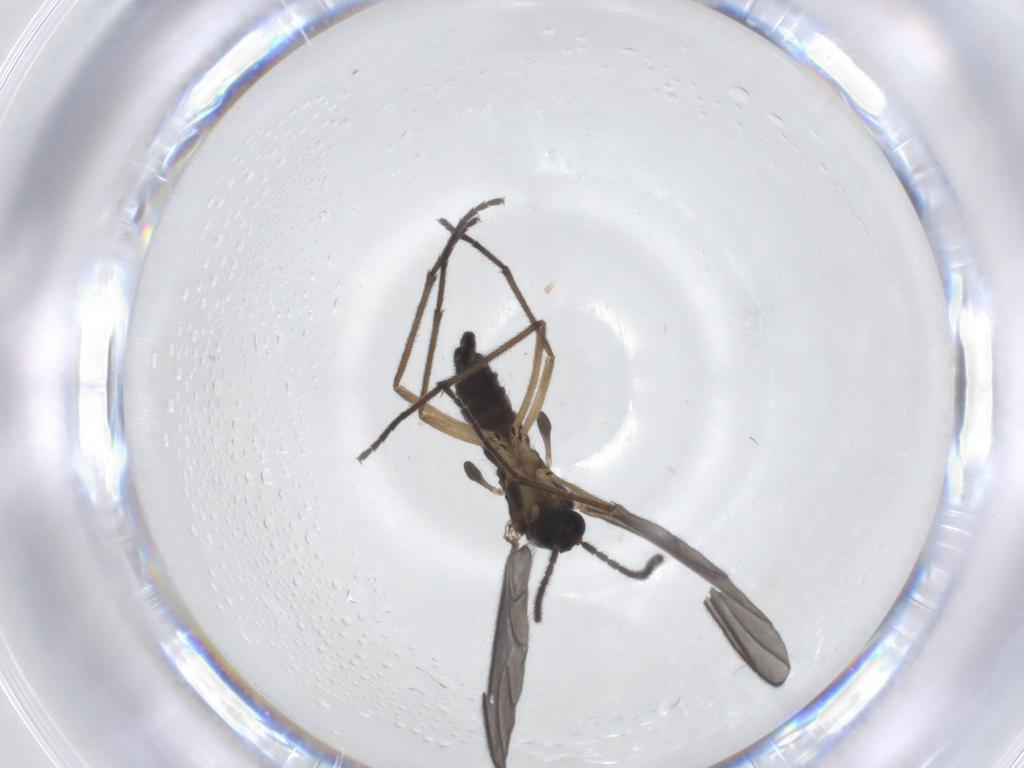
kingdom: Animalia
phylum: Arthropoda
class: Insecta
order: Diptera
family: Sciaridae
